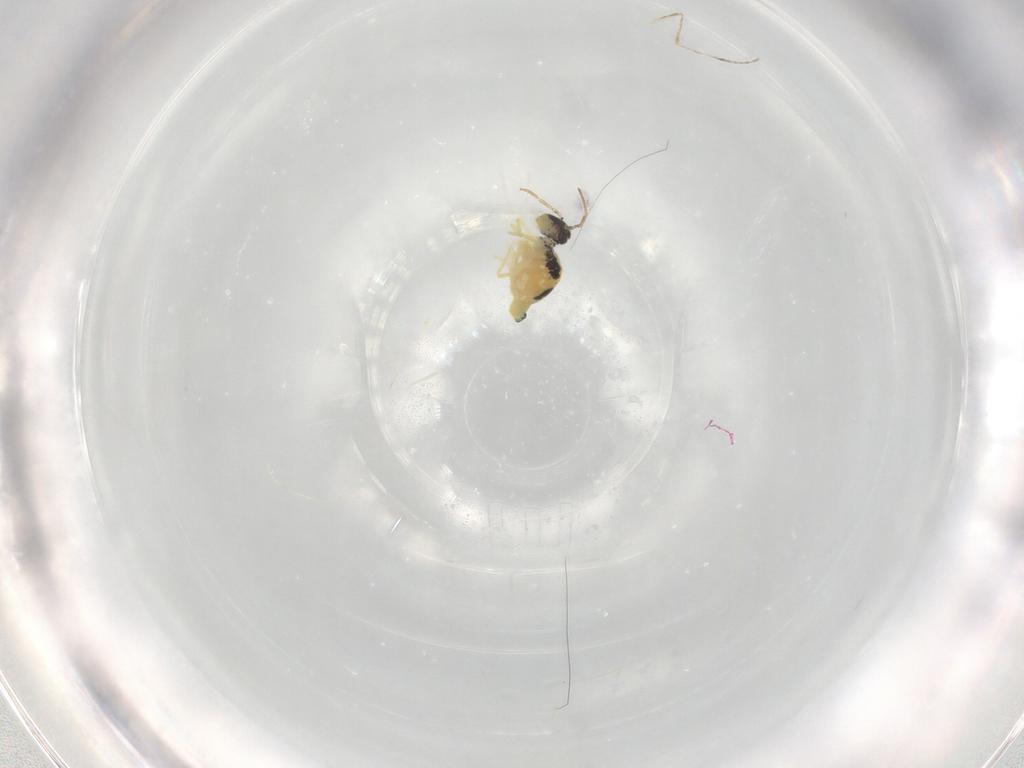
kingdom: Animalia
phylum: Arthropoda
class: Collembola
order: Symphypleona
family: Bourletiellidae
